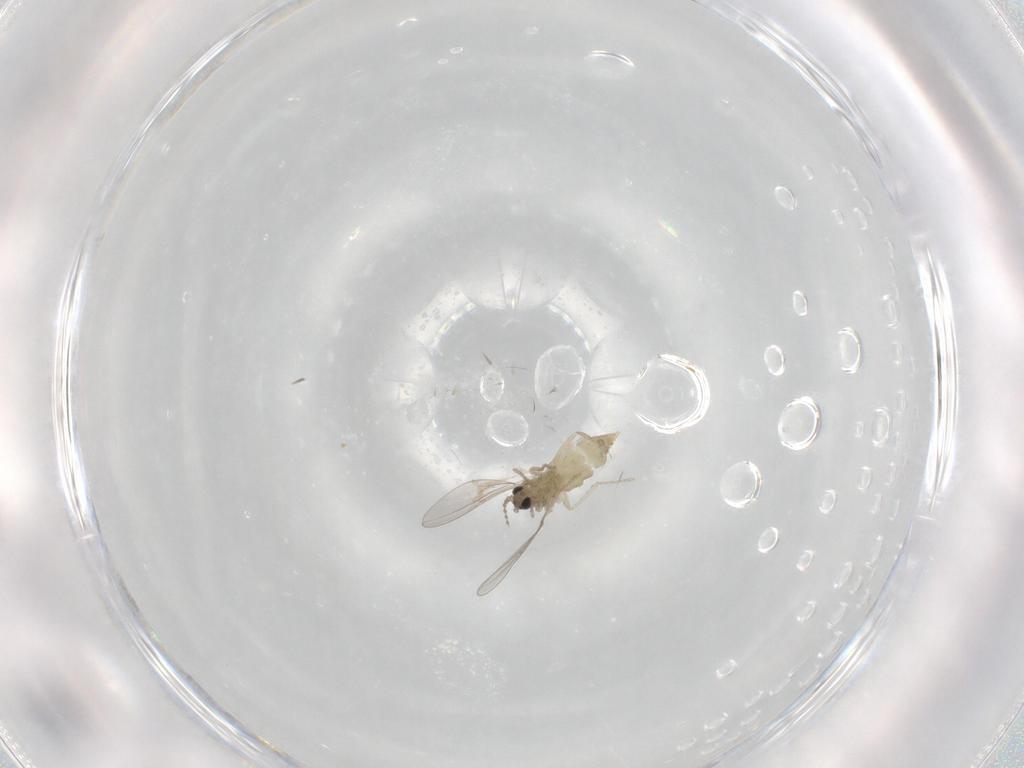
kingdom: Animalia
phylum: Arthropoda
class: Insecta
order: Diptera
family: Cecidomyiidae
